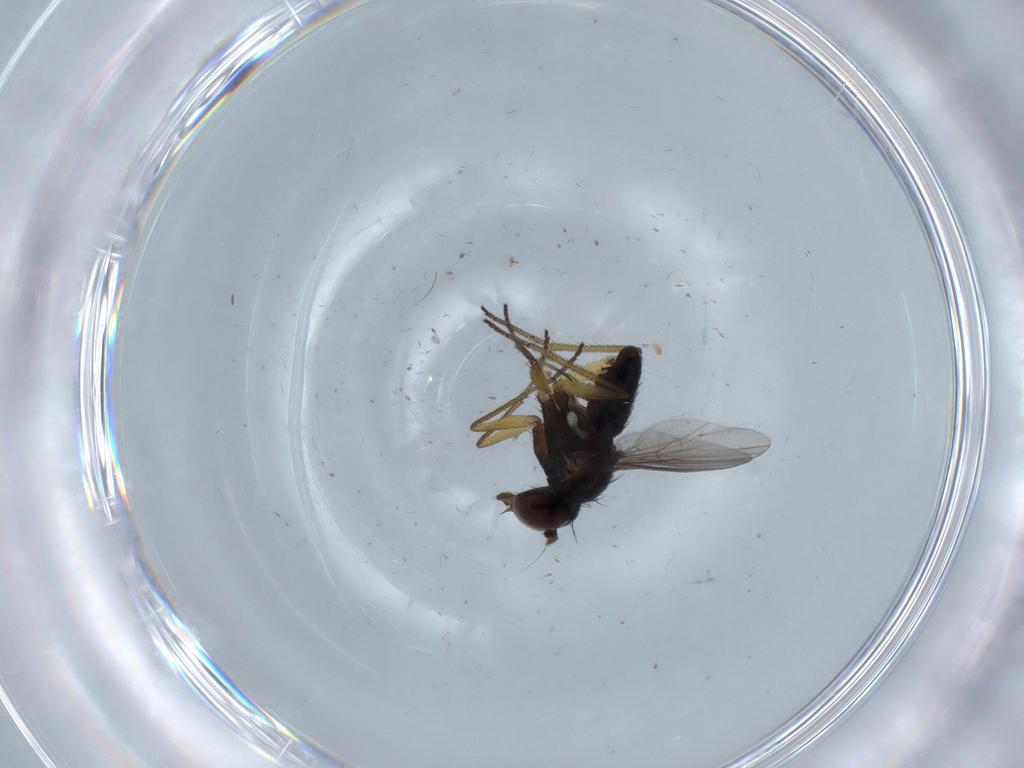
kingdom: Animalia
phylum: Arthropoda
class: Insecta
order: Diptera
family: Dolichopodidae
